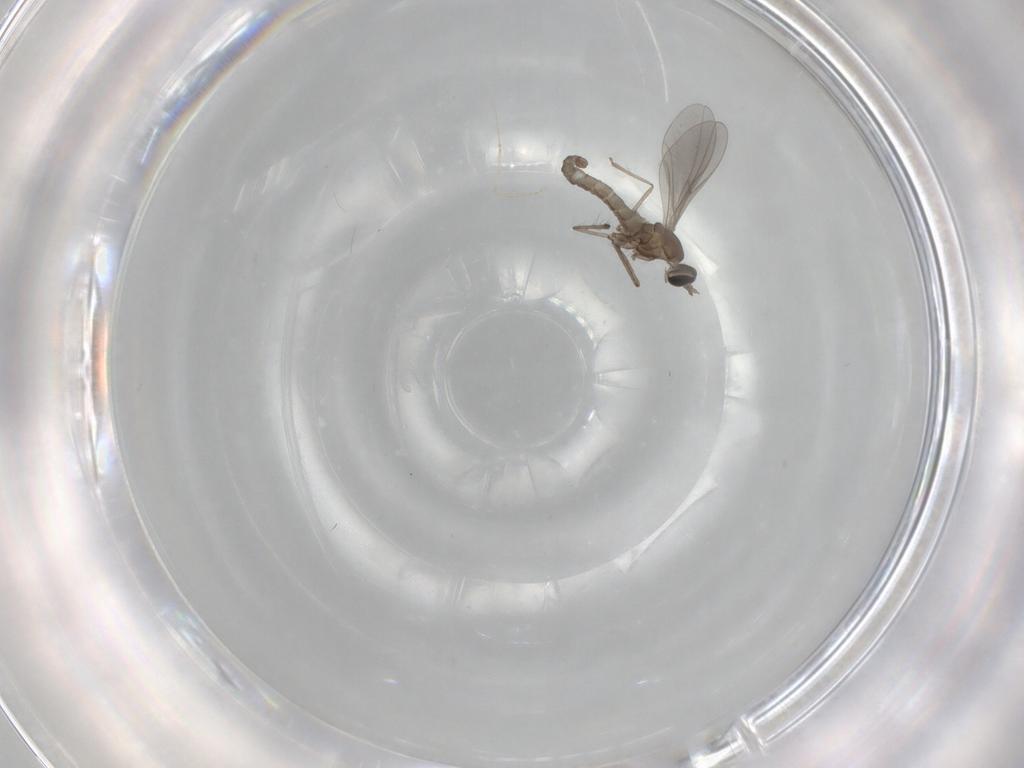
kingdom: Animalia
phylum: Arthropoda
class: Insecta
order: Diptera
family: Cecidomyiidae
